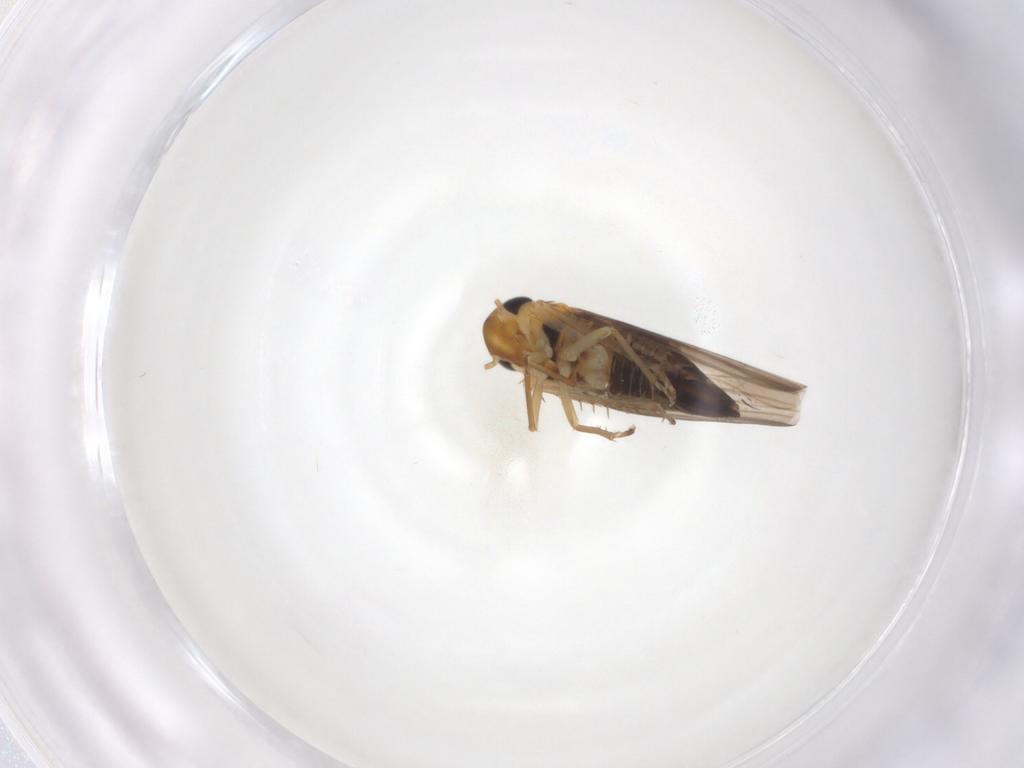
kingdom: Animalia
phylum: Arthropoda
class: Insecta
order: Hemiptera
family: Cicadellidae
